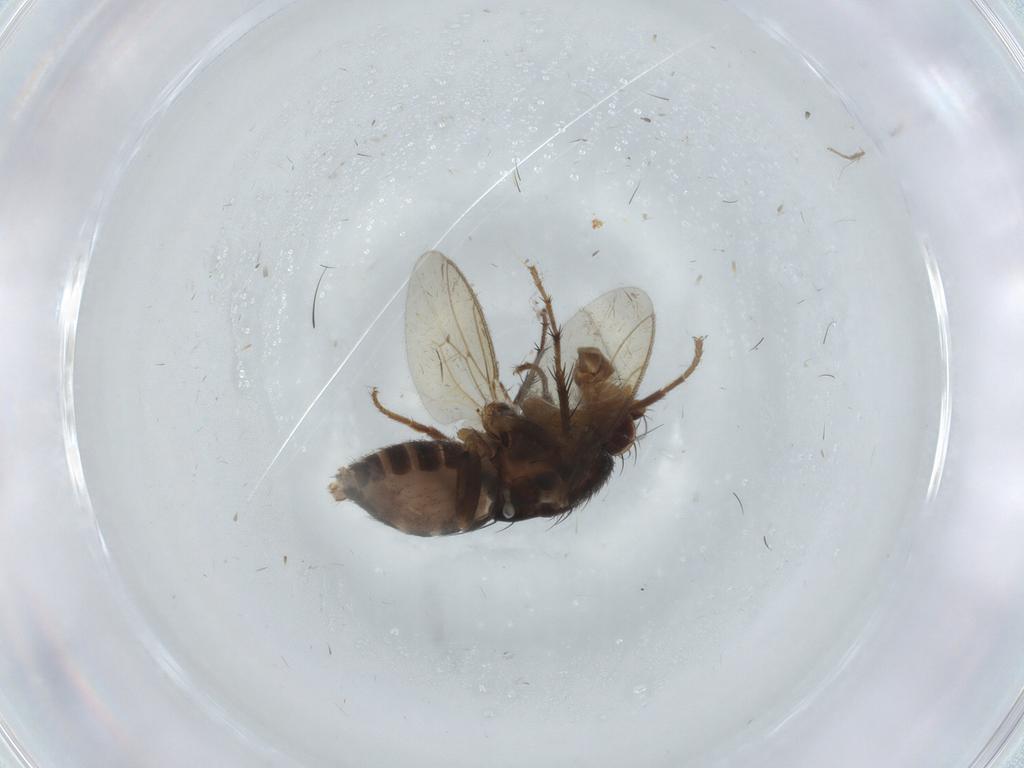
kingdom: Animalia
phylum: Arthropoda
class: Insecta
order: Diptera
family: Sphaeroceridae
